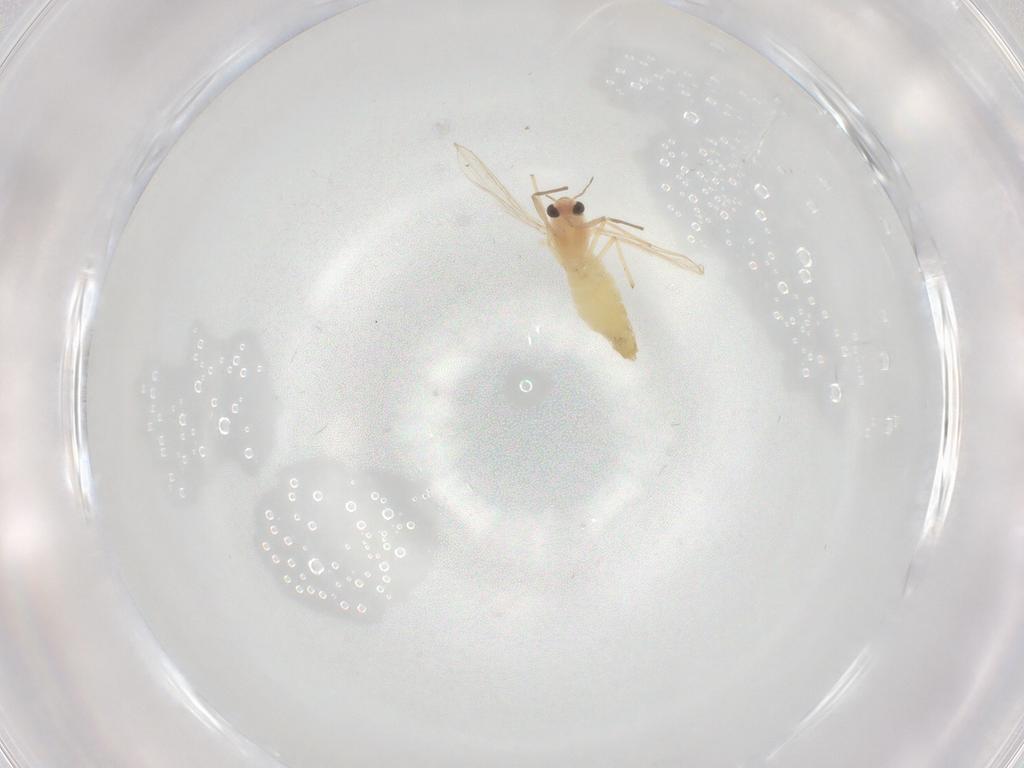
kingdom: Animalia
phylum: Arthropoda
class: Insecta
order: Diptera
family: Chironomidae
